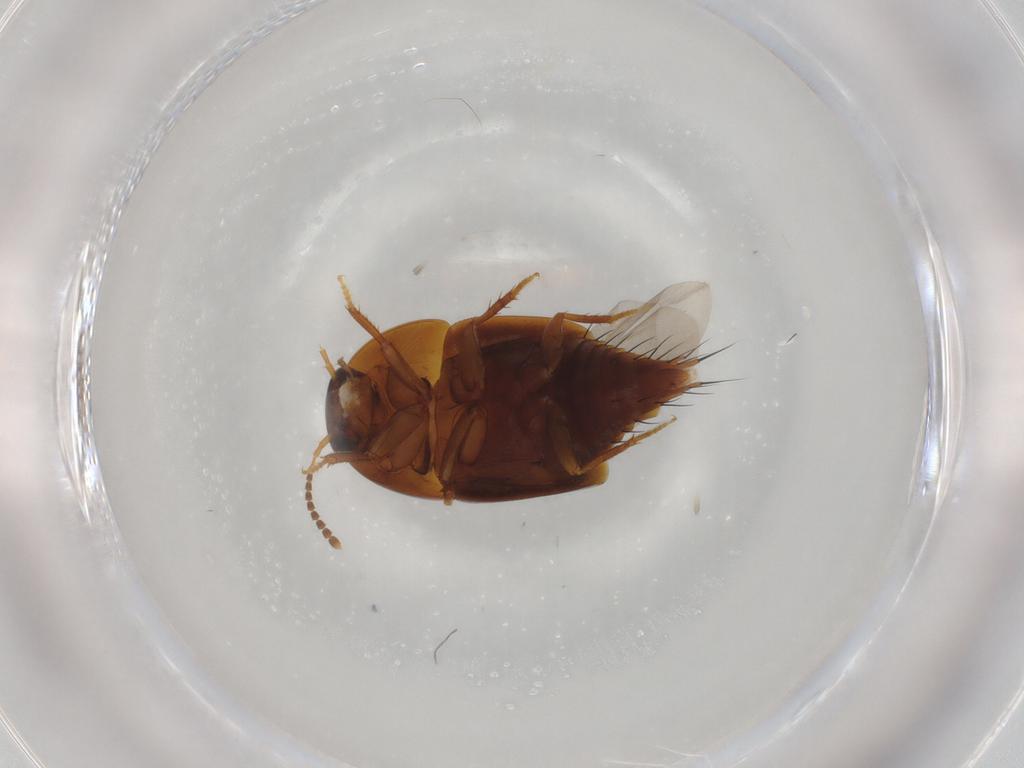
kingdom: Animalia
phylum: Arthropoda
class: Insecta
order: Coleoptera
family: Staphylinidae
